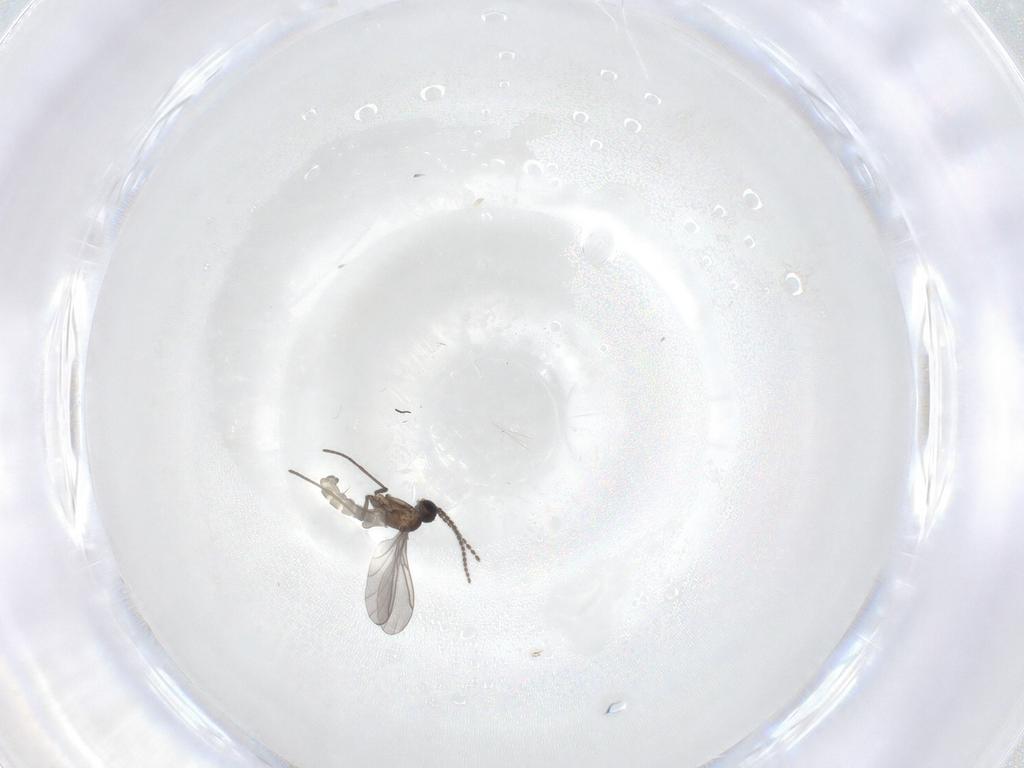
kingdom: Animalia
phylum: Arthropoda
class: Insecta
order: Diptera
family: Sciaridae
